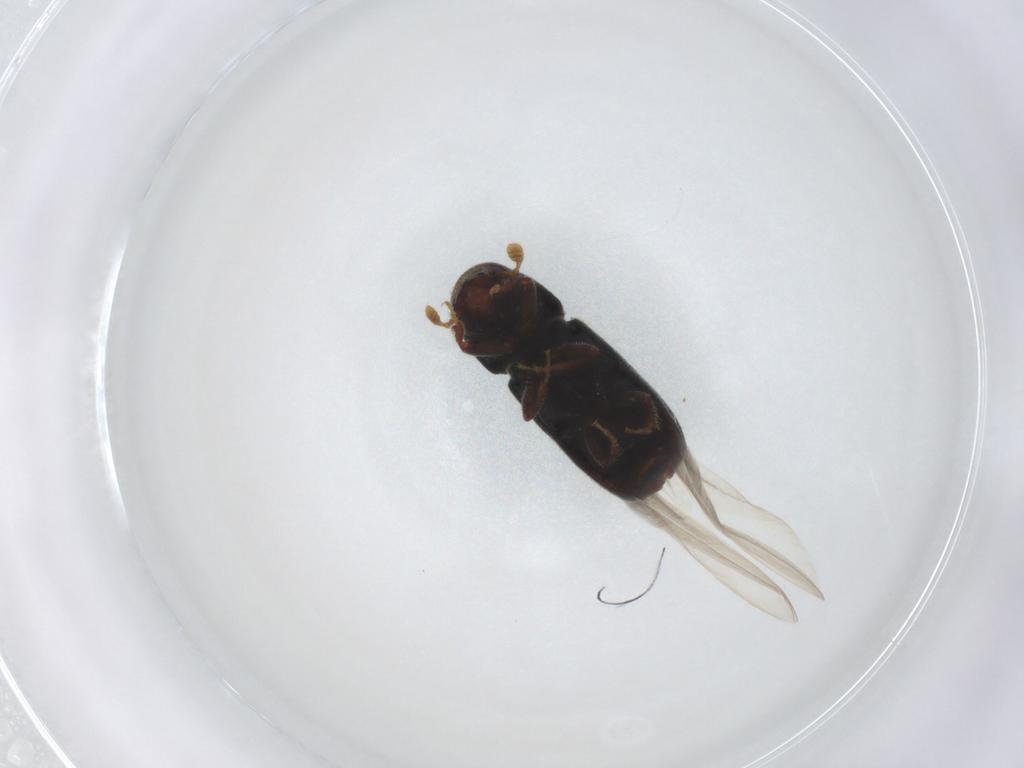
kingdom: Animalia
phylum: Arthropoda
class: Insecta
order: Coleoptera
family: Curculionidae
